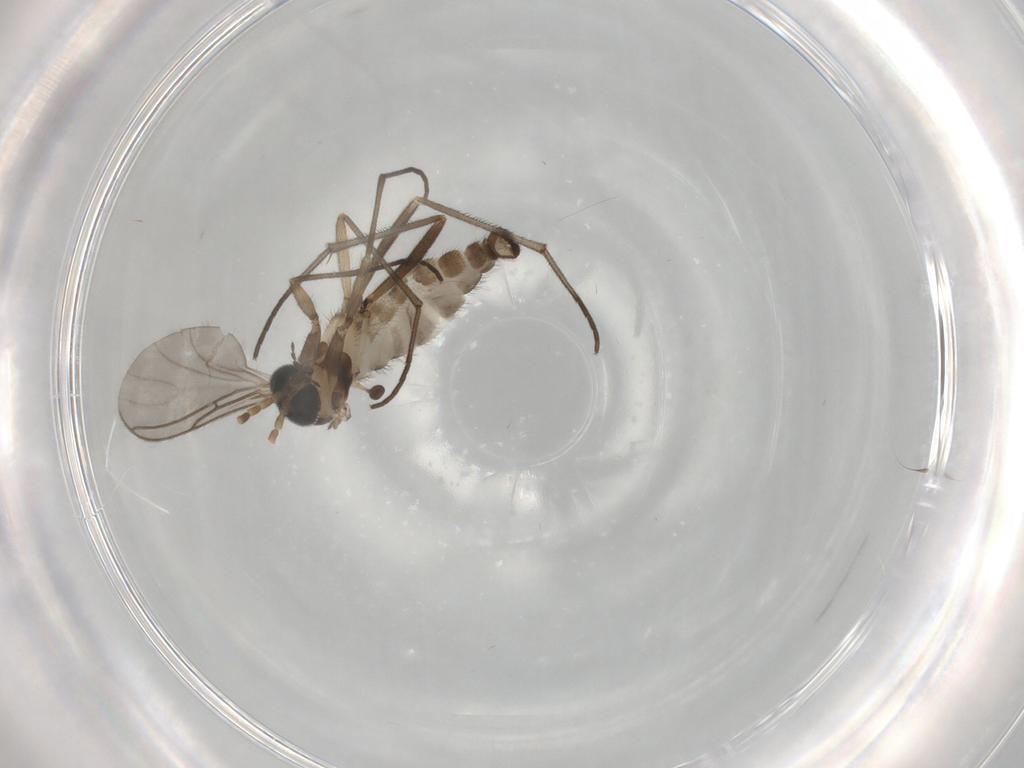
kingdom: Animalia
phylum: Arthropoda
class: Insecta
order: Diptera
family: Sciaridae
